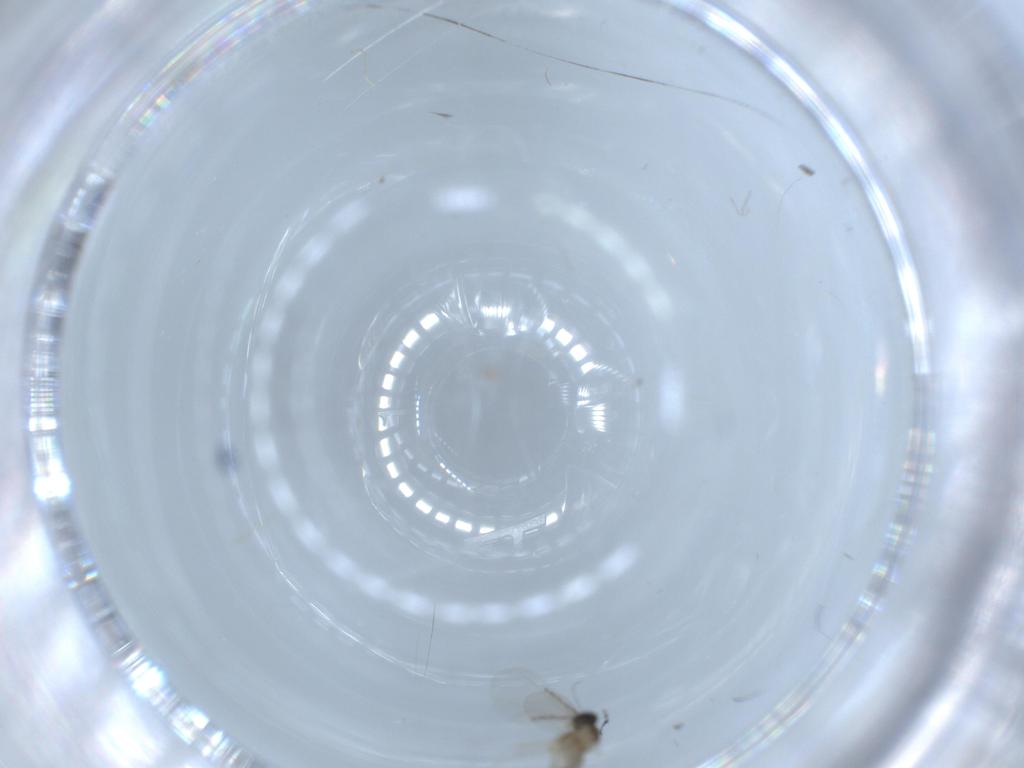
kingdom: Animalia
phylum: Arthropoda
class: Insecta
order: Diptera
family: Cecidomyiidae
